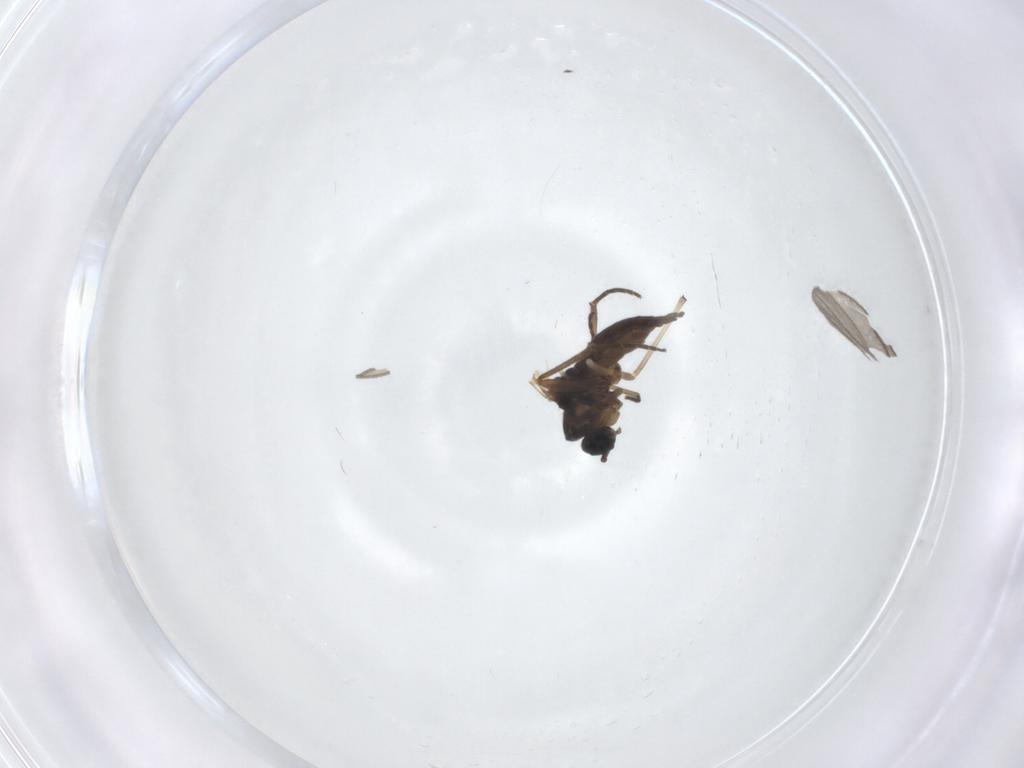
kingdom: Animalia
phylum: Arthropoda
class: Insecta
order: Diptera
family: Sciaridae
